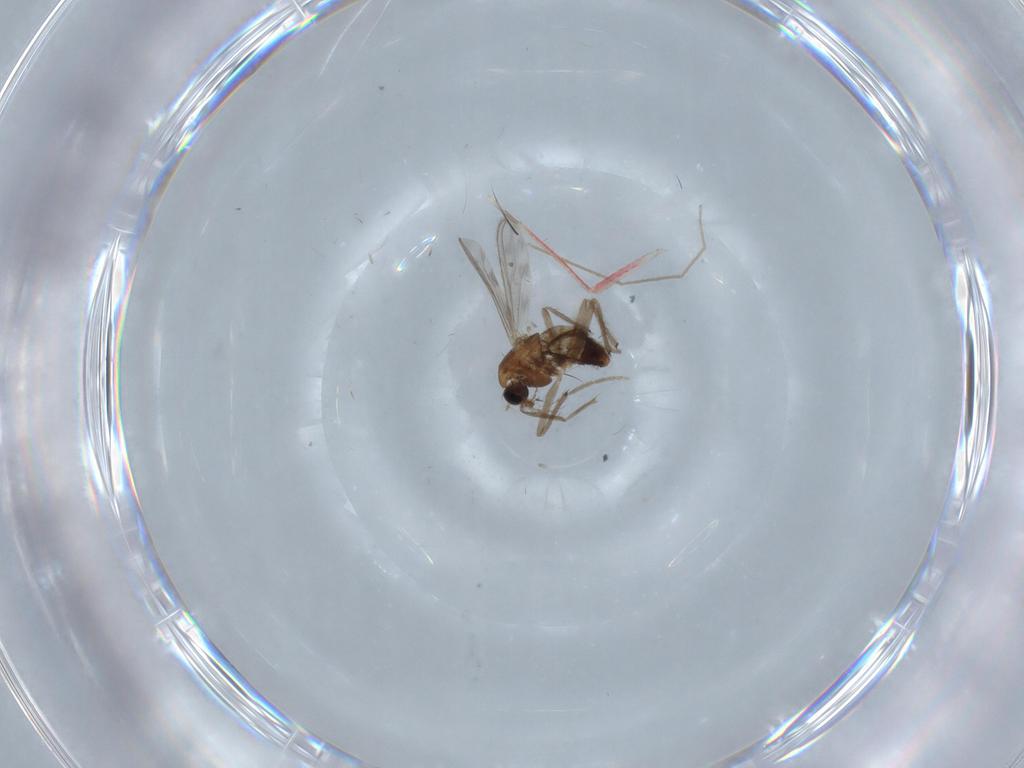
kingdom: Animalia
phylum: Arthropoda
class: Insecta
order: Diptera
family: Chironomidae
